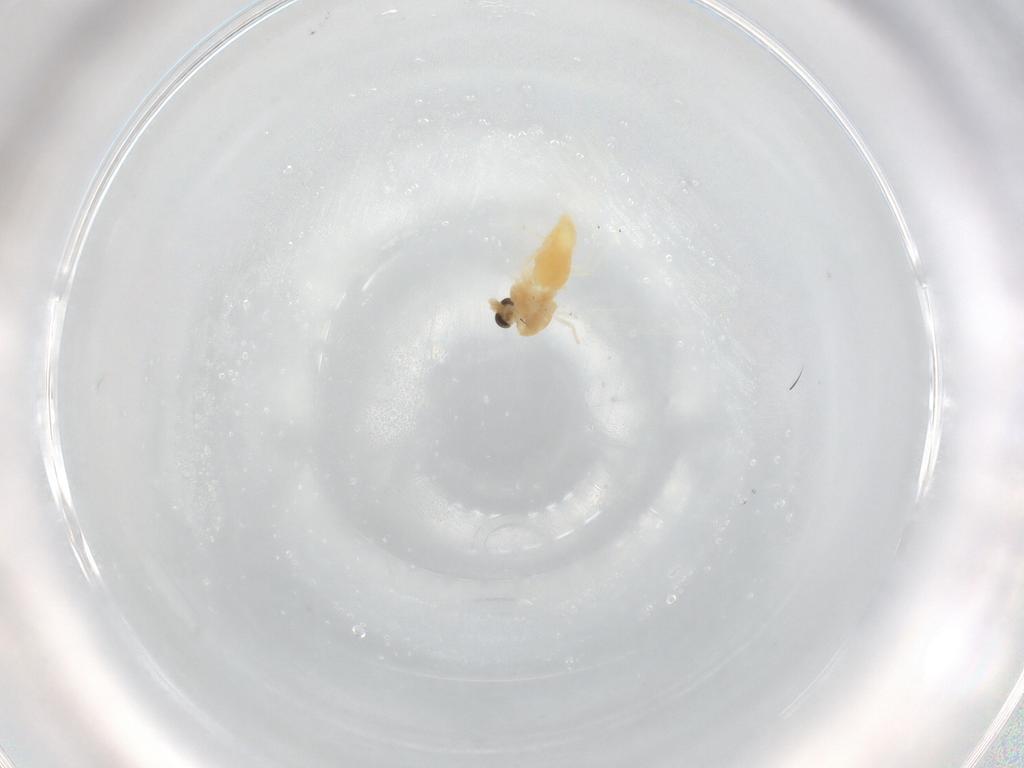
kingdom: Animalia
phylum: Arthropoda
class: Insecta
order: Diptera
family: Chironomidae
